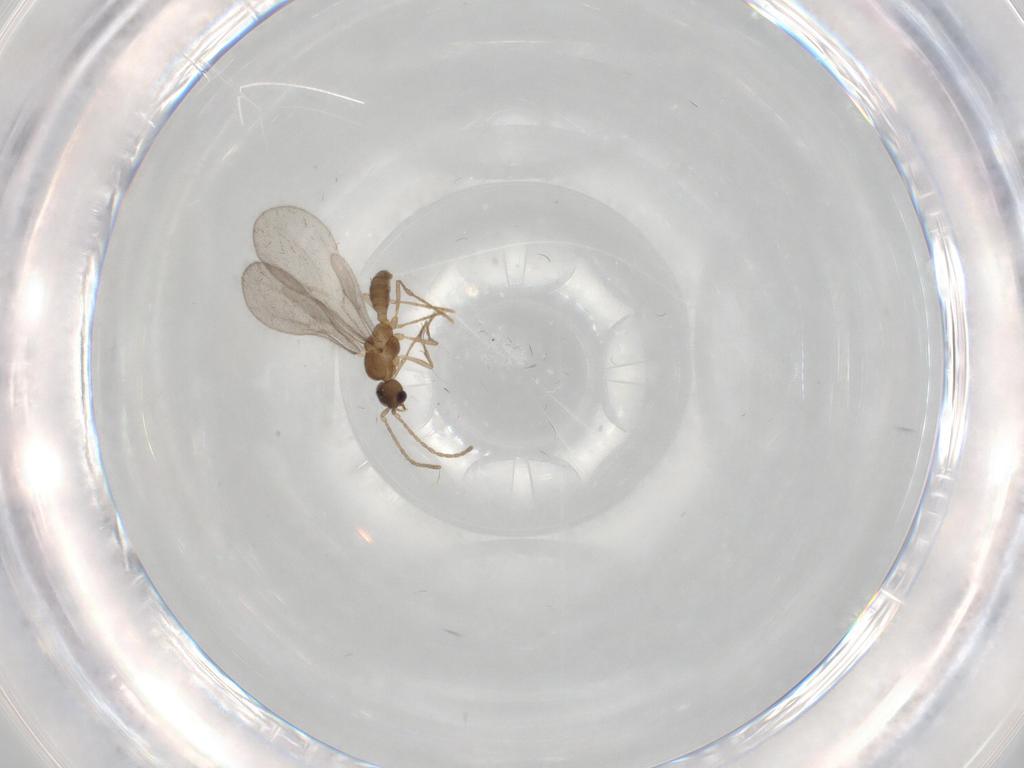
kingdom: Animalia
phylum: Arthropoda
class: Insecta
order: Hymenoptera
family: Formicidae
